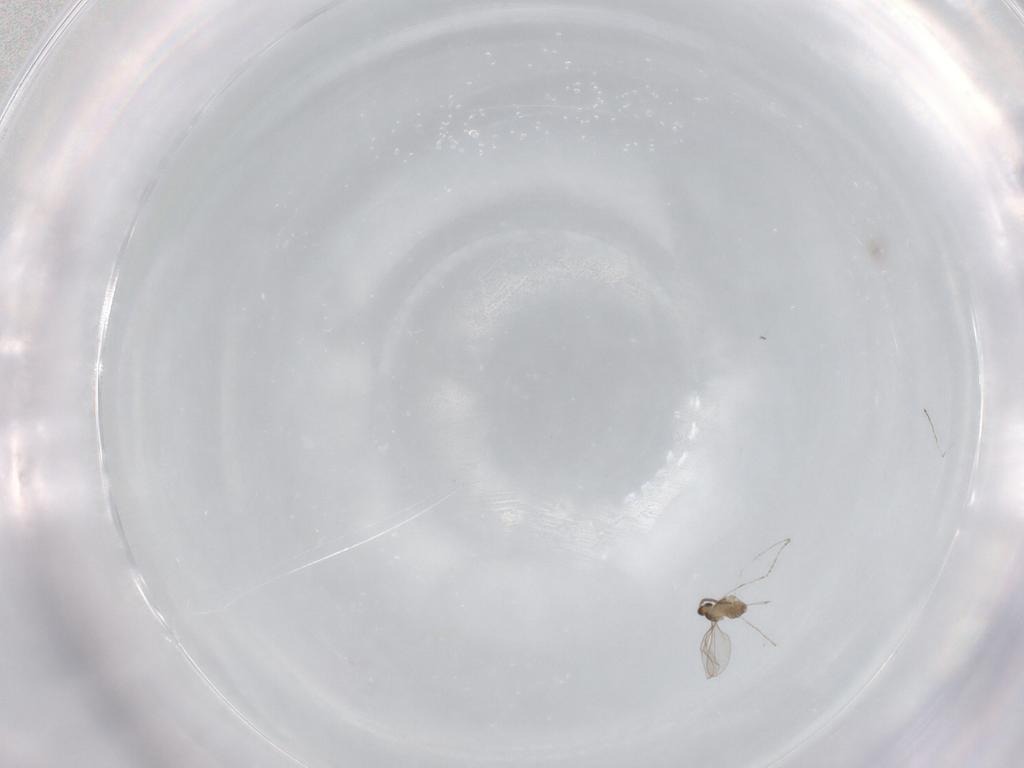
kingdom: Animalia
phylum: Arthropoda
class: Insecta
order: Diptera
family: Cecidomyiidae
